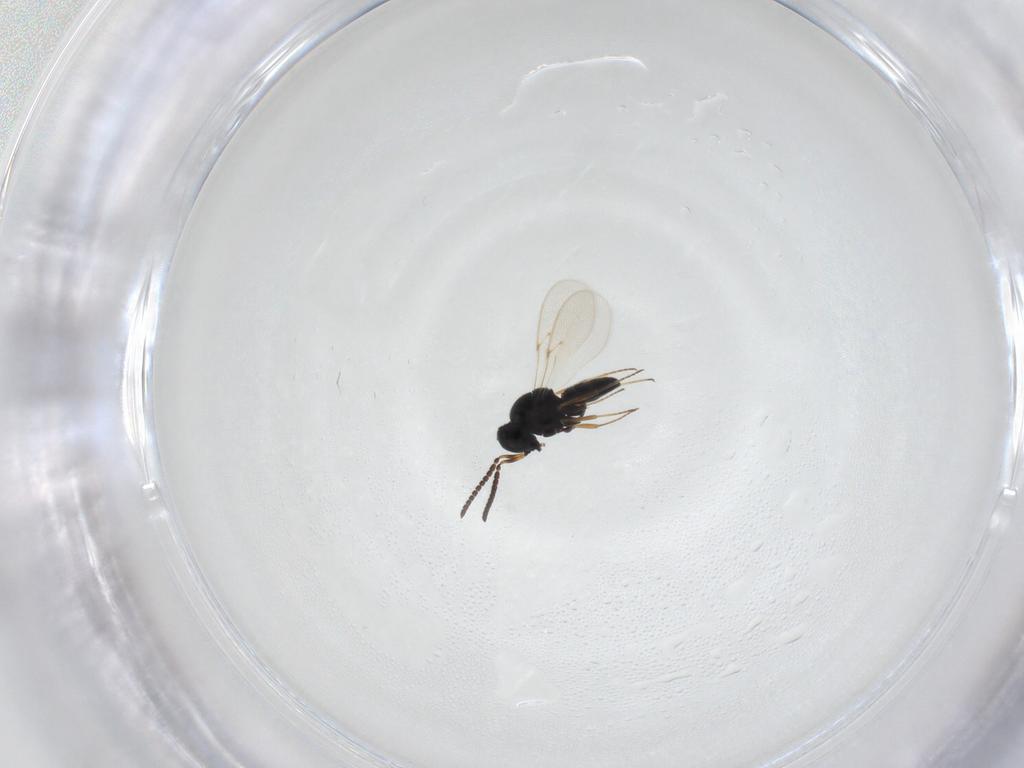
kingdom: Animalia
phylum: Arthropoda
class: Insecta
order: Hymenoptera
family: Scelionidae
